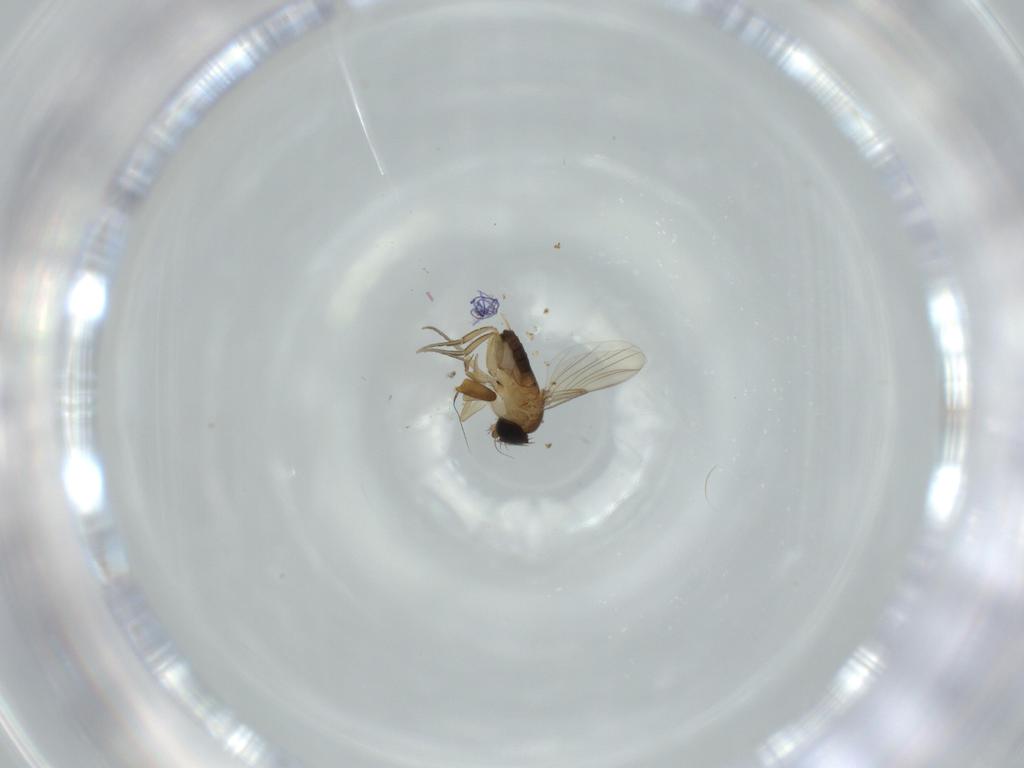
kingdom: Animalia
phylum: Arthropoda
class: Insecta
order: Diptera
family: Phoridae
